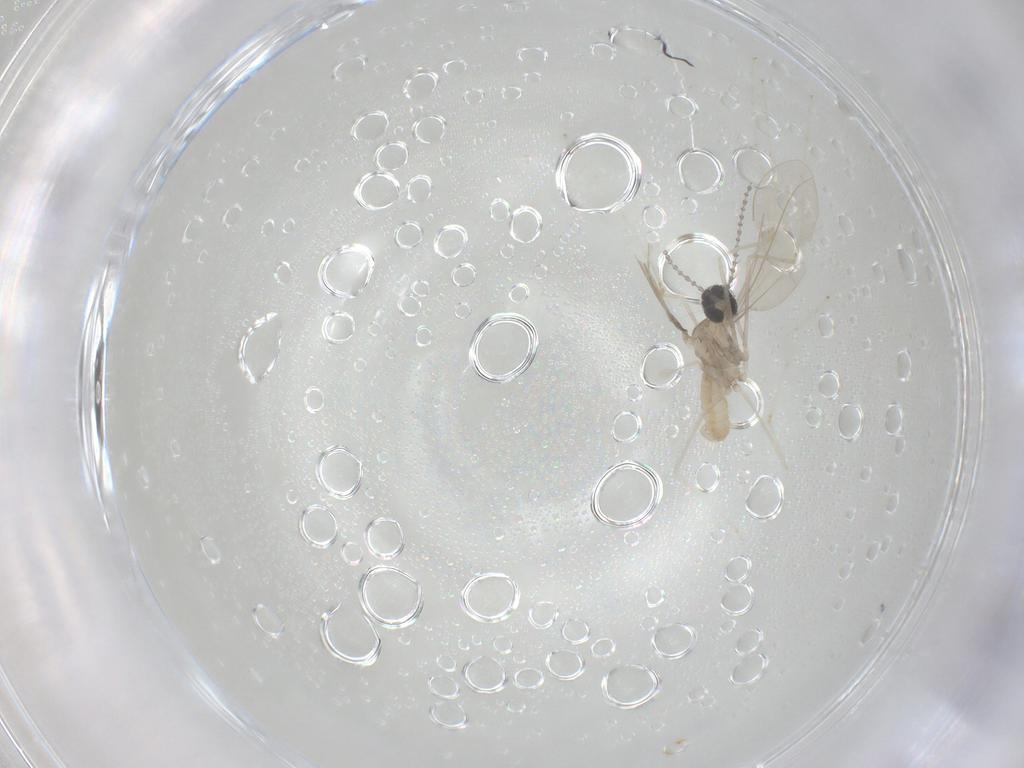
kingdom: Animalia
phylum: Arthropoda
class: Insecta
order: Diptera
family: Cecidomyiidae
